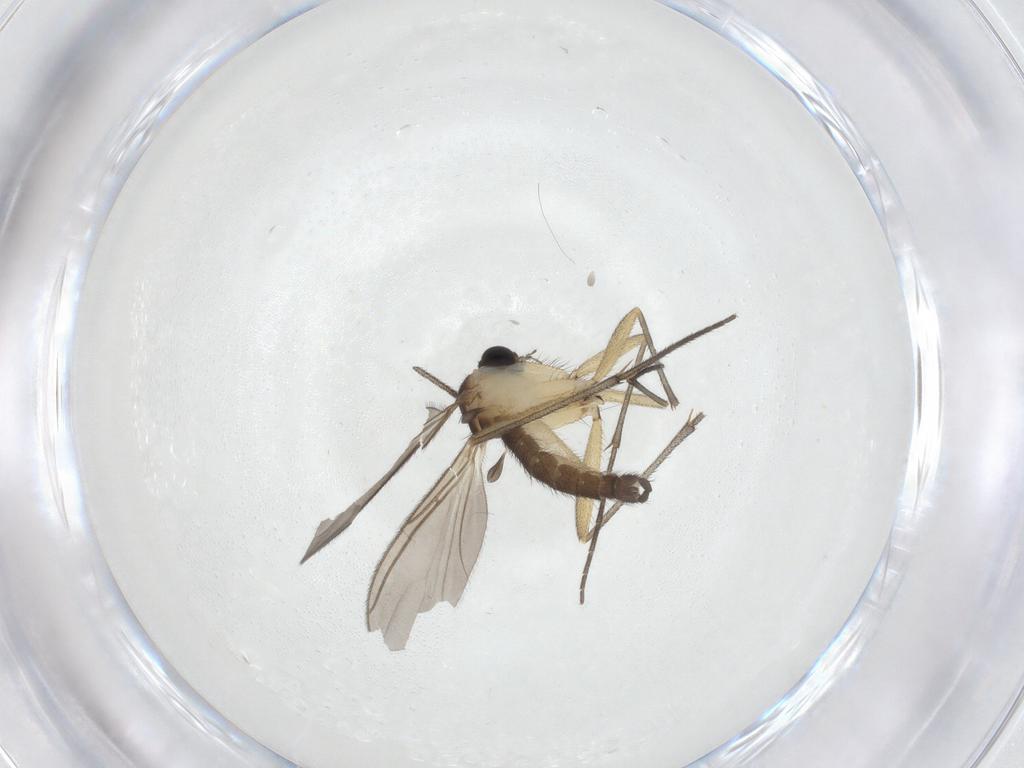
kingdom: Animalia
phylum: Arthropoda
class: Insecta
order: Diptera
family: Sciaridae
